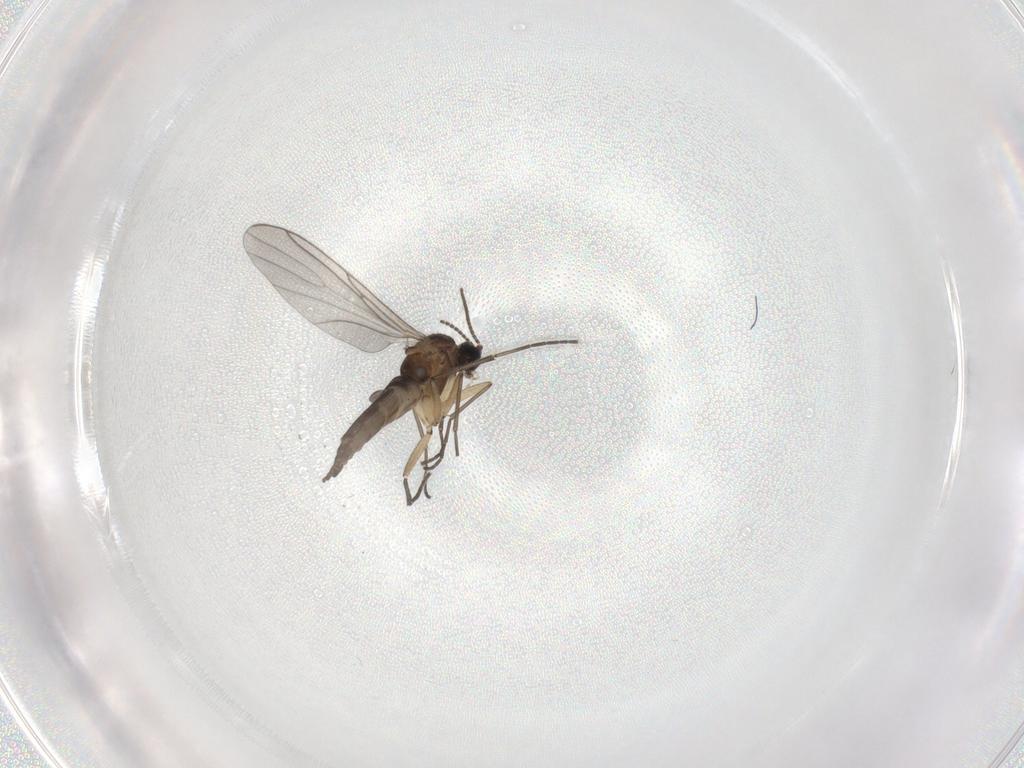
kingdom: Animalia
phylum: Arthropoda
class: Insecta
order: Diptera
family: Sciaridae
